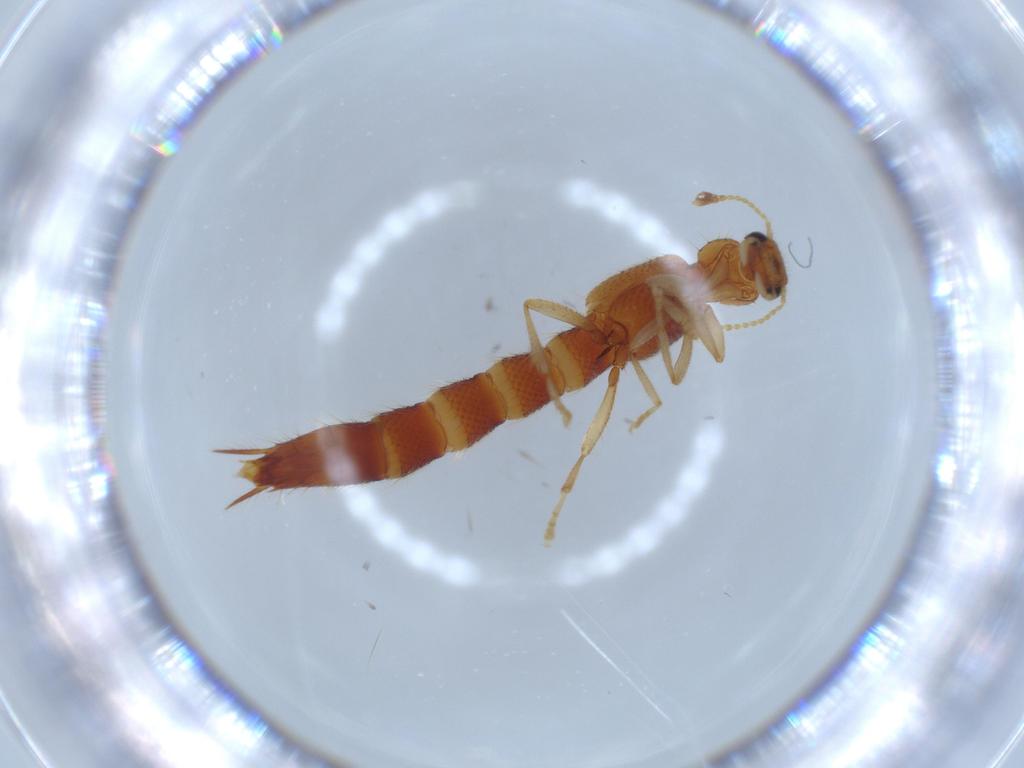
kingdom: Animalia
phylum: Arthropoda
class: Insecta
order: Coleoptera
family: Staphylinidae
